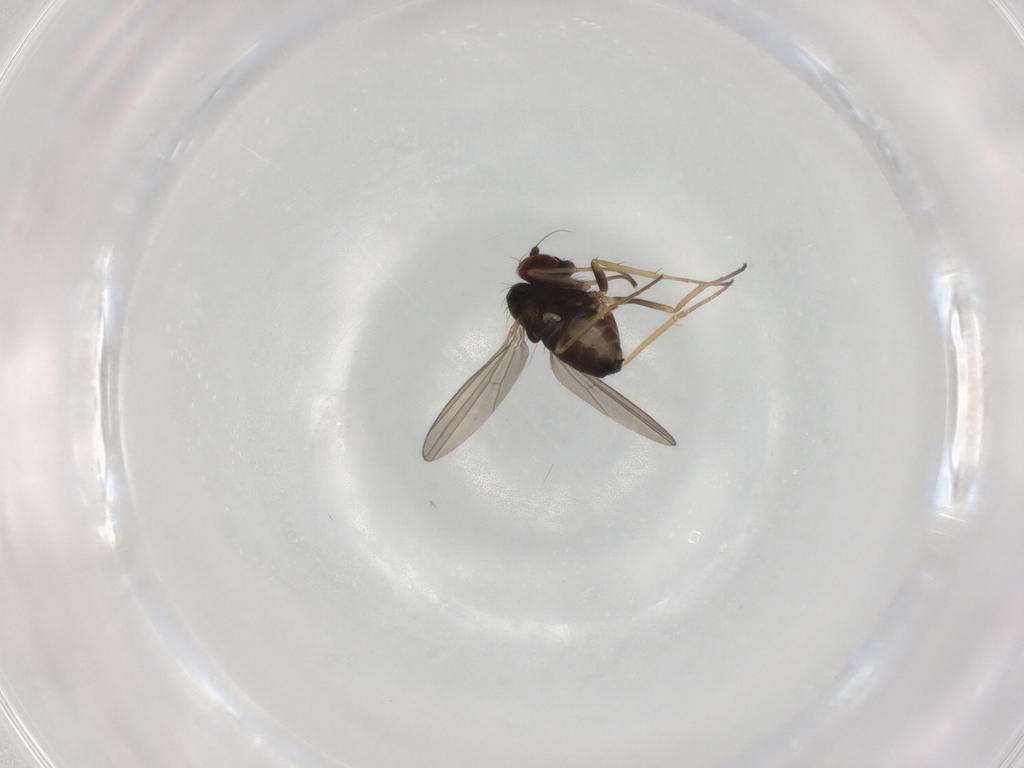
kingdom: Animalia
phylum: Arthropoda
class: Insecta
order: Diptera
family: Phoridae
